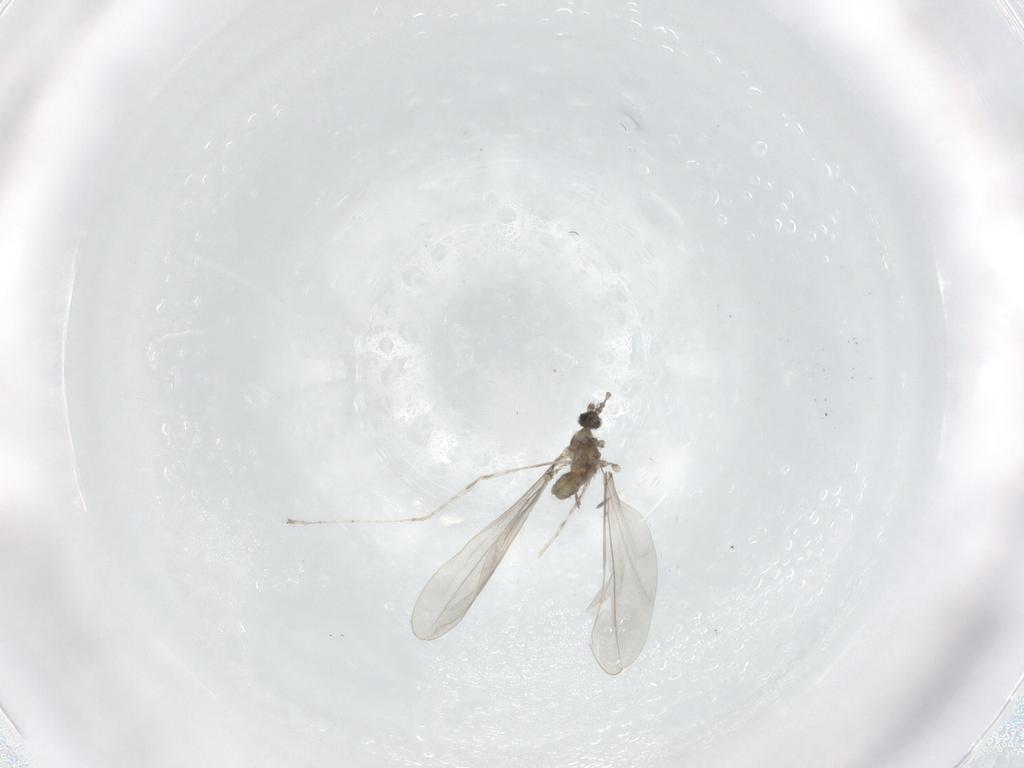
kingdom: Animalia
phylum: Arthropoda
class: Insecta
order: Diptera
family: Cecidomyiidae
